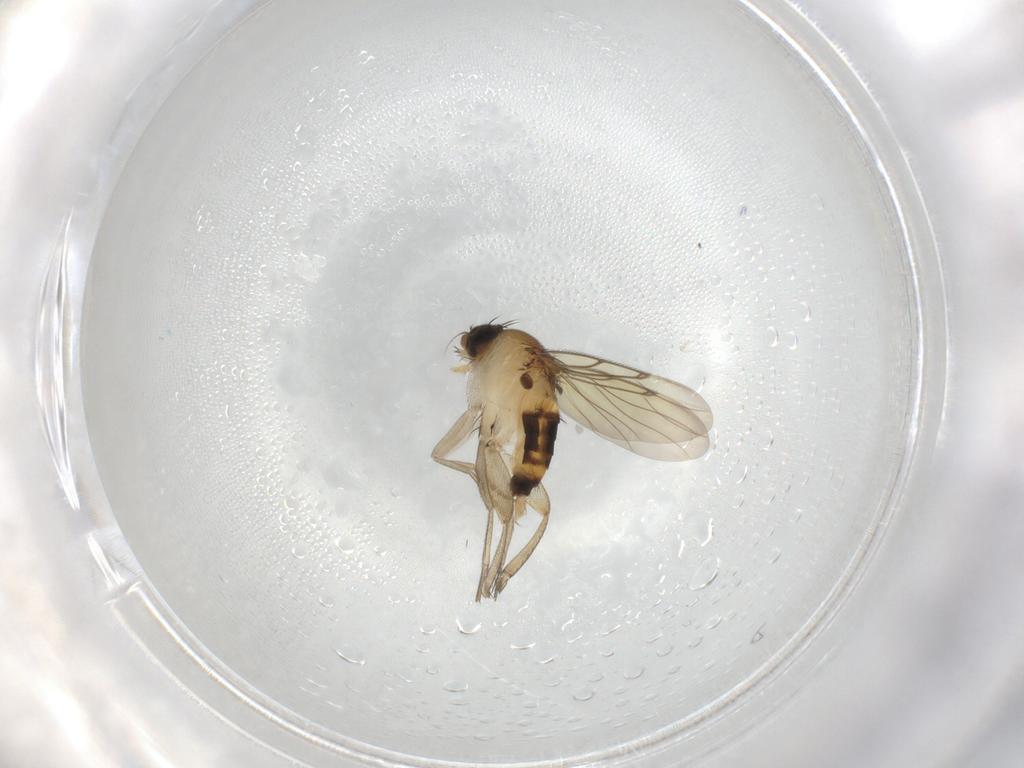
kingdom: Animalia
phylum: Arthropoda
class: Insecta
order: Diptera
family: Phoridae
